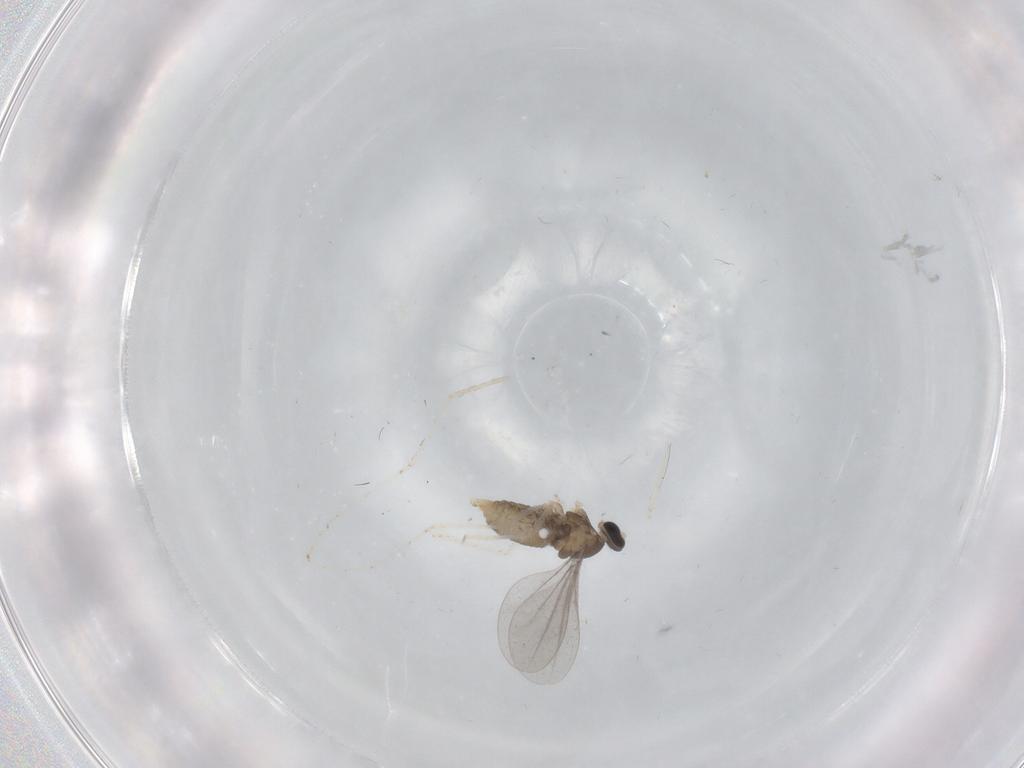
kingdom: Animalia
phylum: Arthropoda
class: Insecta
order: Diptera
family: Cecidomyiidae
